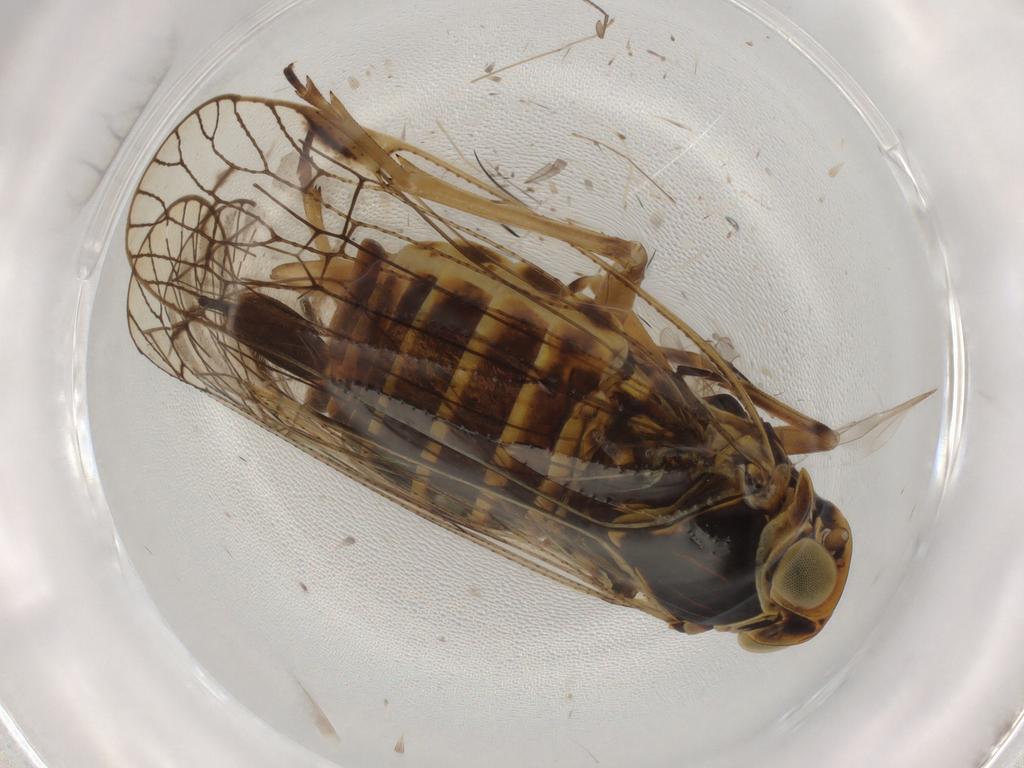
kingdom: Animalia
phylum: Arthropoda
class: Insecta
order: Hemiptera
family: Cixiidae
